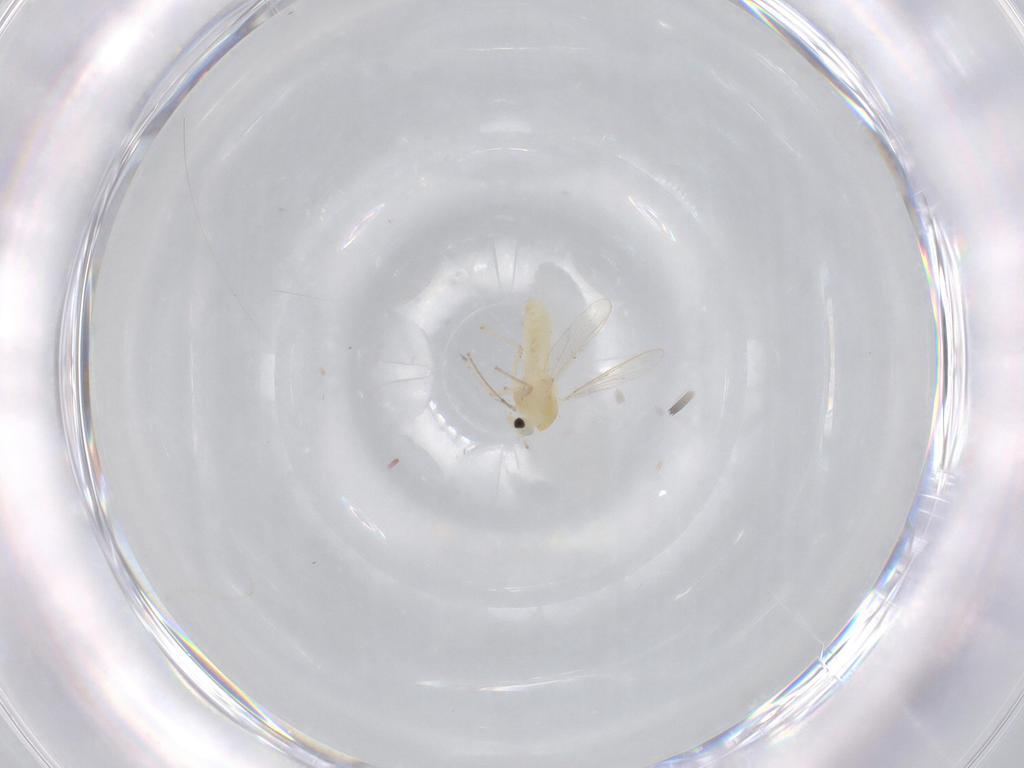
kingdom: Animalia
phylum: Arthropoda
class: Insecta
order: Diptera
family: Chironomidae
